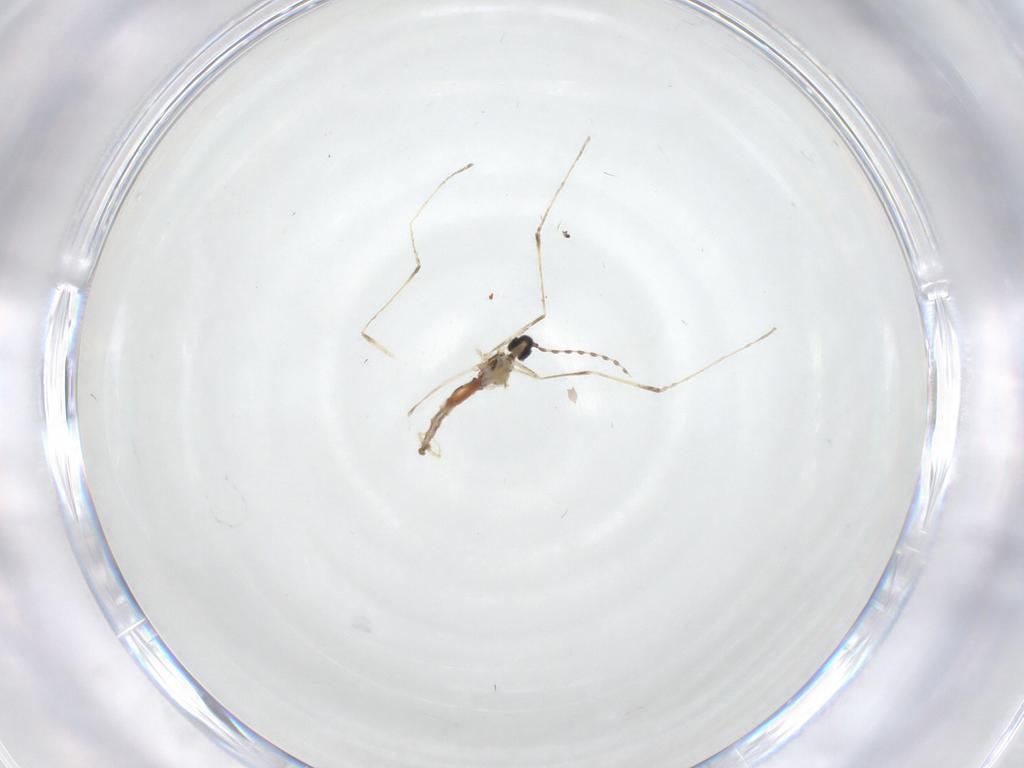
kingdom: Animalia
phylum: Arthropoda
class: Insecta
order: Diptera
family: Cecidomyiidae
